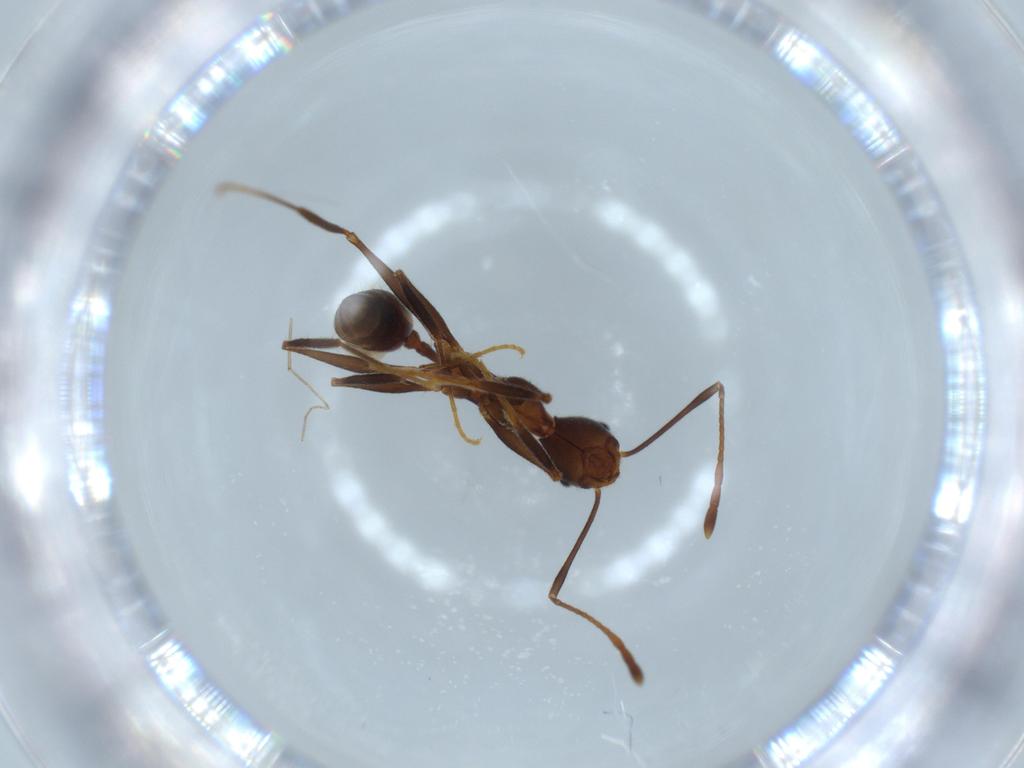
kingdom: Animalia
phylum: Arthropoda
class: Insecta
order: Hymenoptera
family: Formicidae
